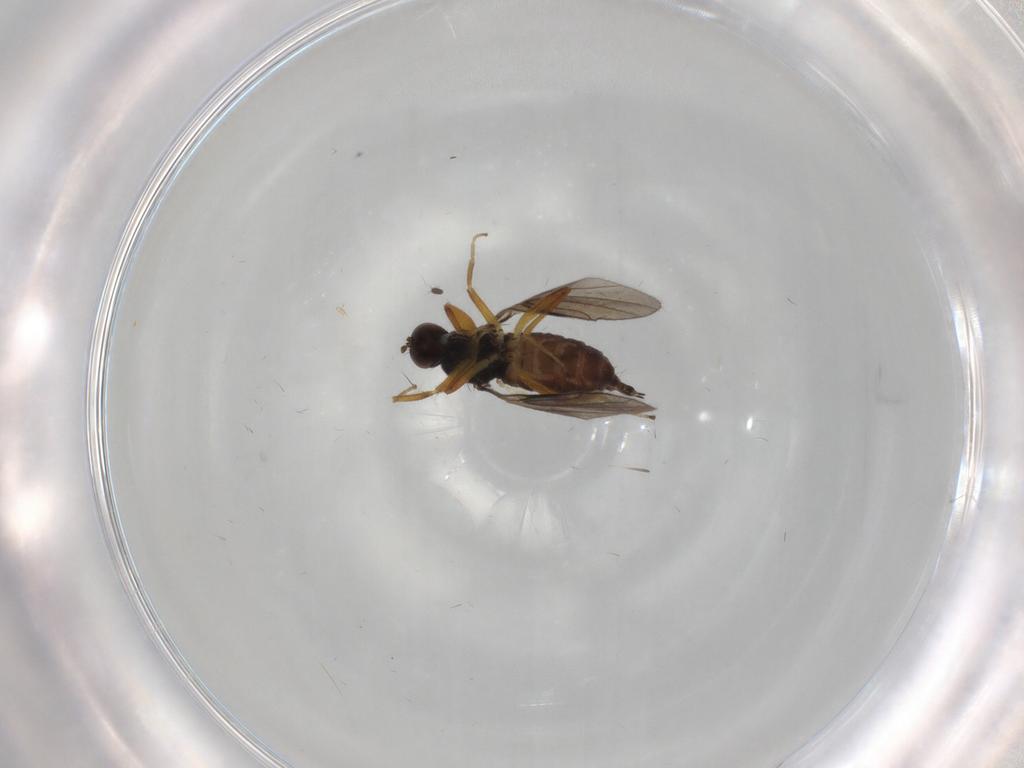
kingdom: Animalia
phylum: Arthropoda
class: Insecta
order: Diptera
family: Hybotidae
